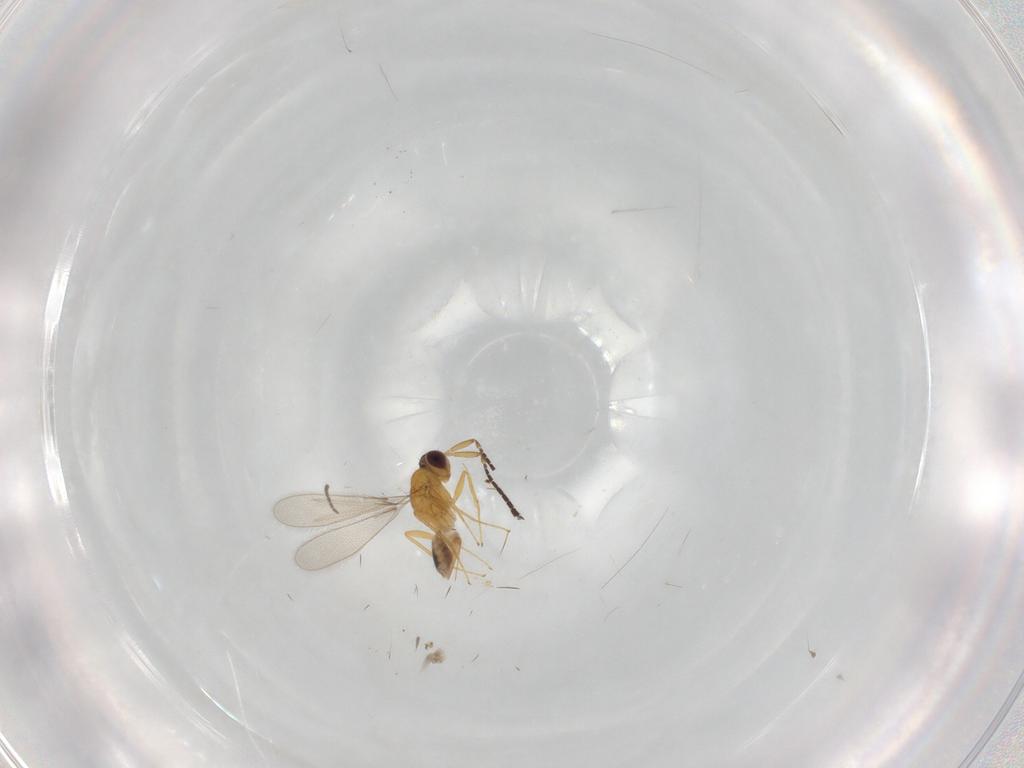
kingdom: Animalia
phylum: Arthropoda
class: Insecta
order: Hymenoptera
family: Mymaridae
